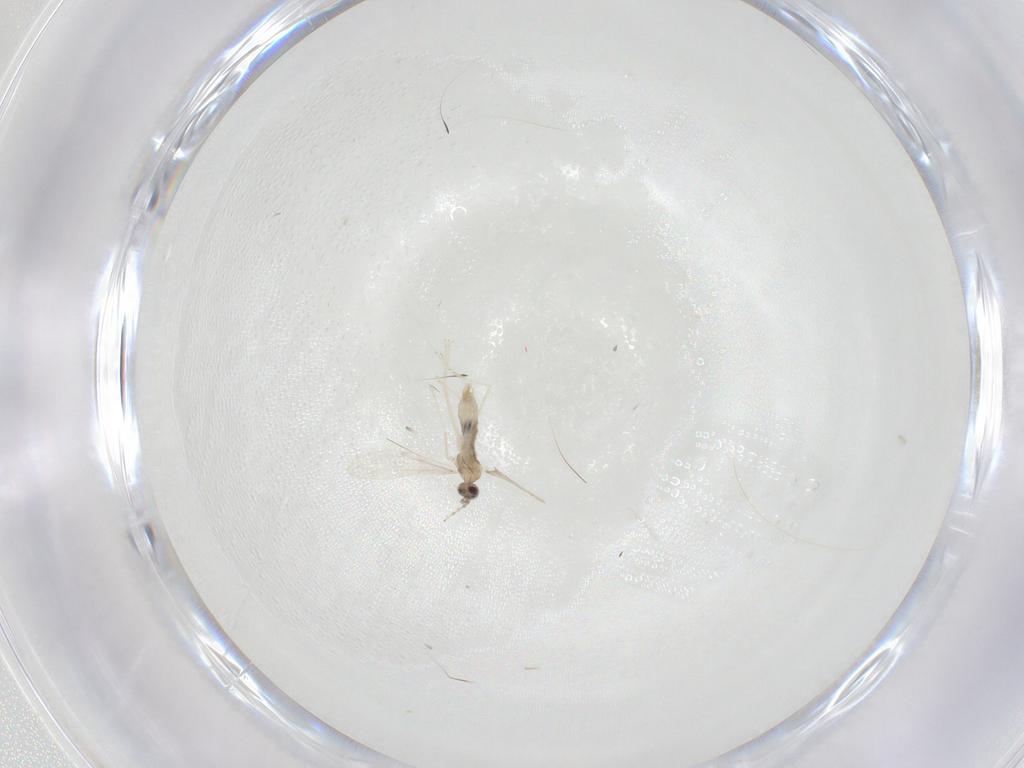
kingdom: Animalia
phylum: Arthropoda
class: Insecta
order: Diptera
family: Cecidomyiidae
